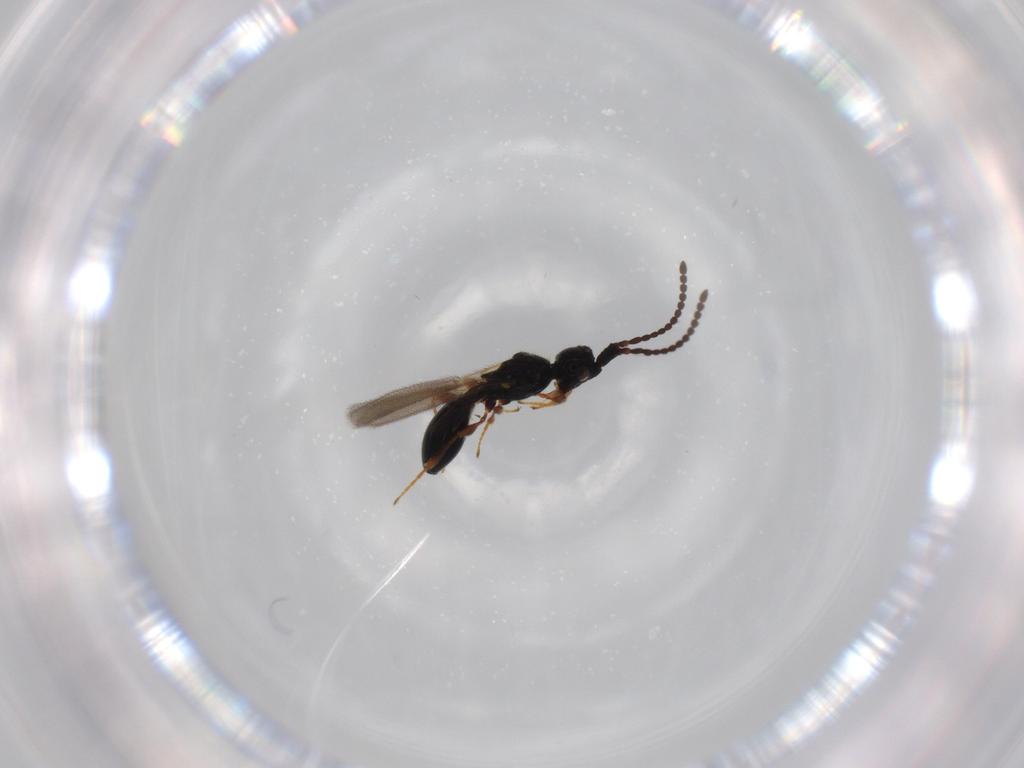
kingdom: Animalia
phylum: Arthropoda
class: Insecta
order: Hymenoptera
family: Diapriidae
